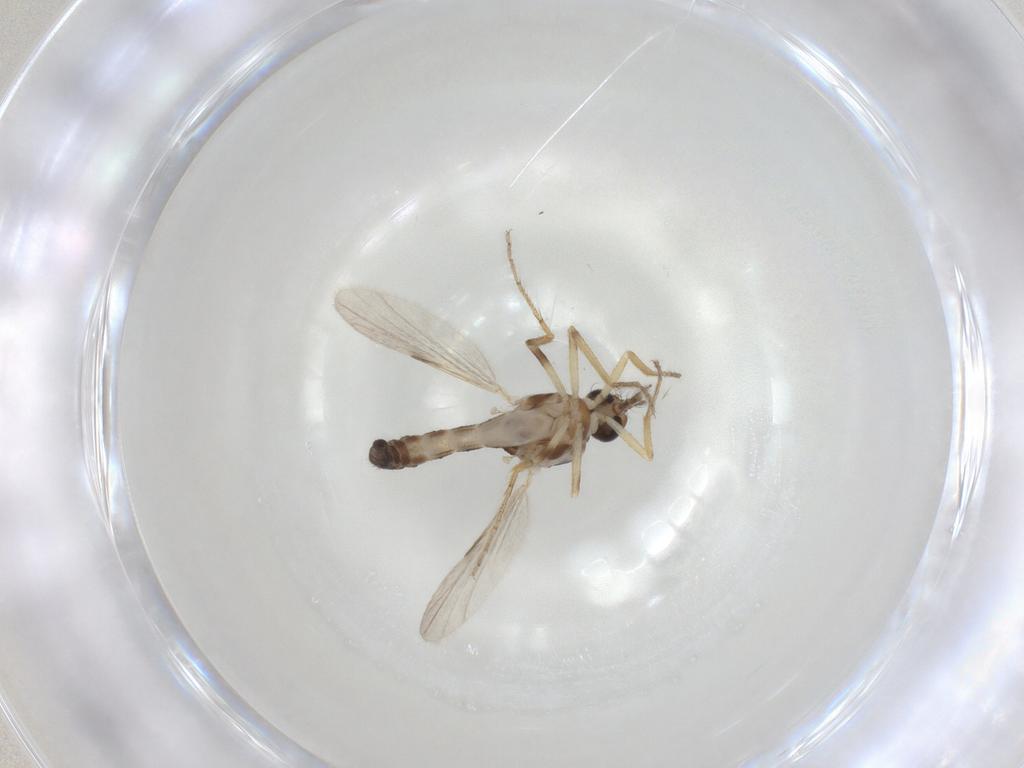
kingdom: Animalia
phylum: Arthropoda
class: Insecta
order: Diptera
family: Ceratopogonidae
